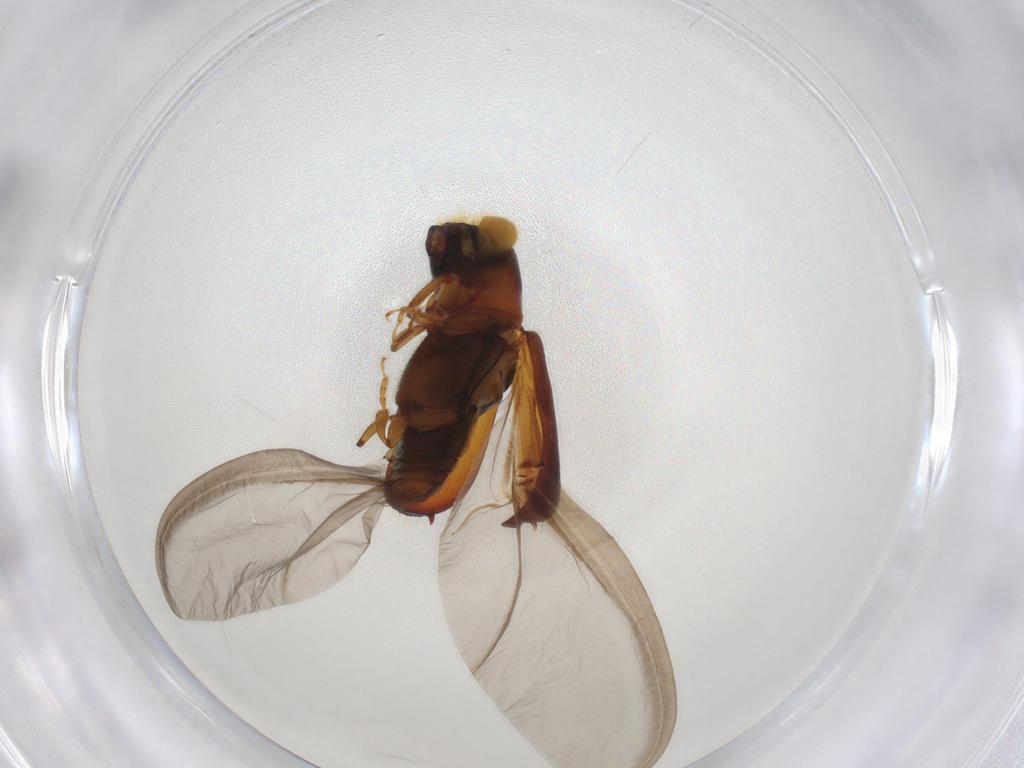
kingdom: Animalia
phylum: Arthropoda
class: Insecta
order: Coleoptera
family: Curculionidae
